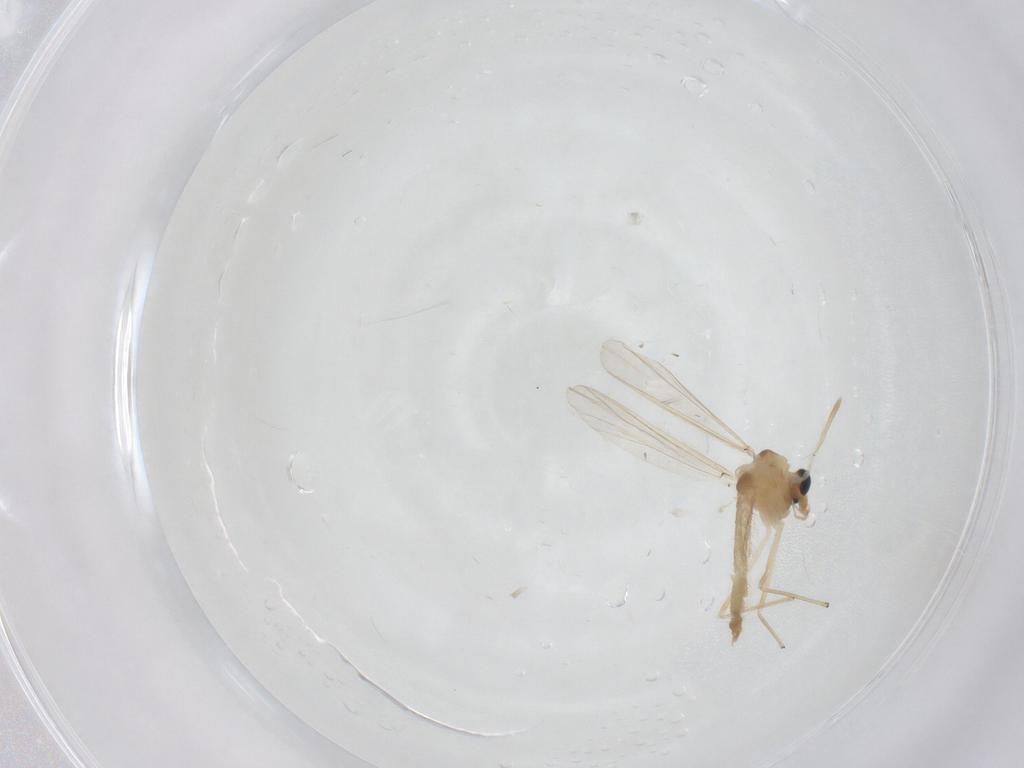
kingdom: Animalia
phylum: Arthropoda
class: Insecta
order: Diptera
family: Chironomidae
